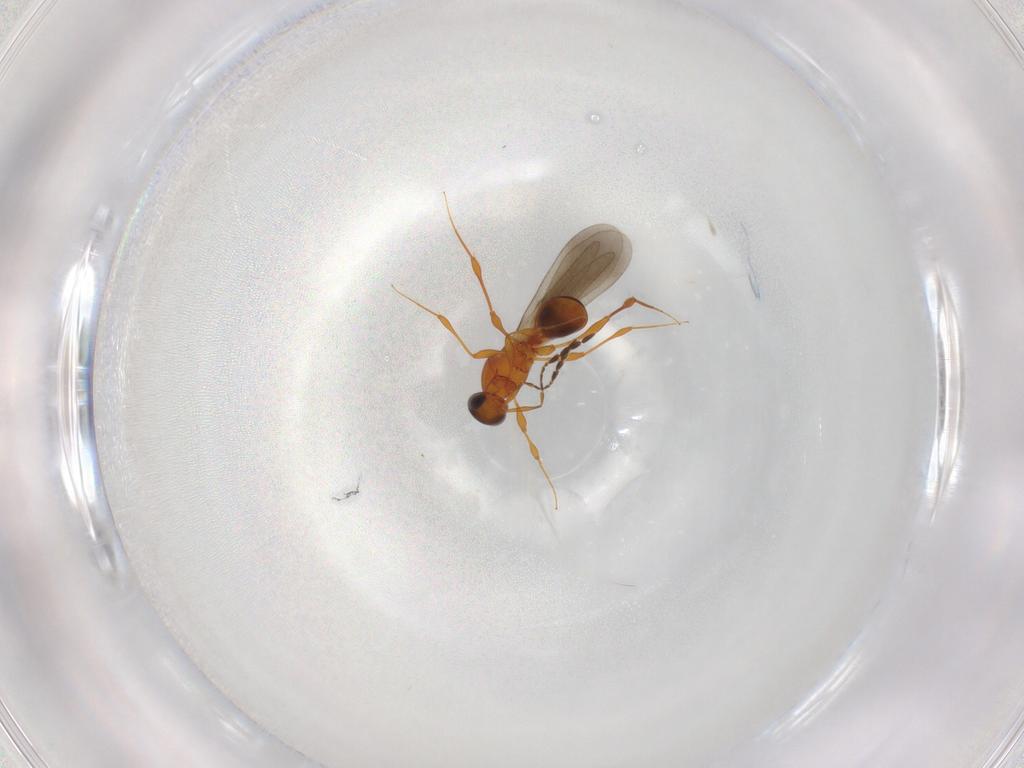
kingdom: Animalia
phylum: Arthropoda
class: Insecta
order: Hymenoptera
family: Platygastridae
